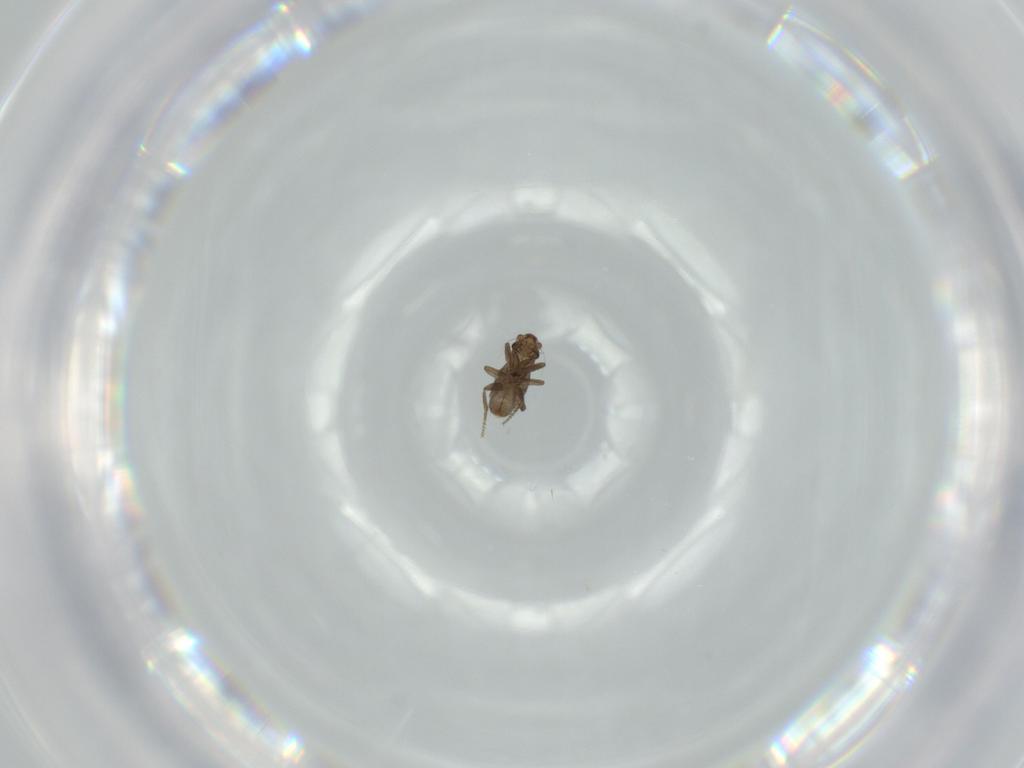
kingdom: Animalia
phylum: Arthropoda
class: Insecta
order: Diptera
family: Phoridae
